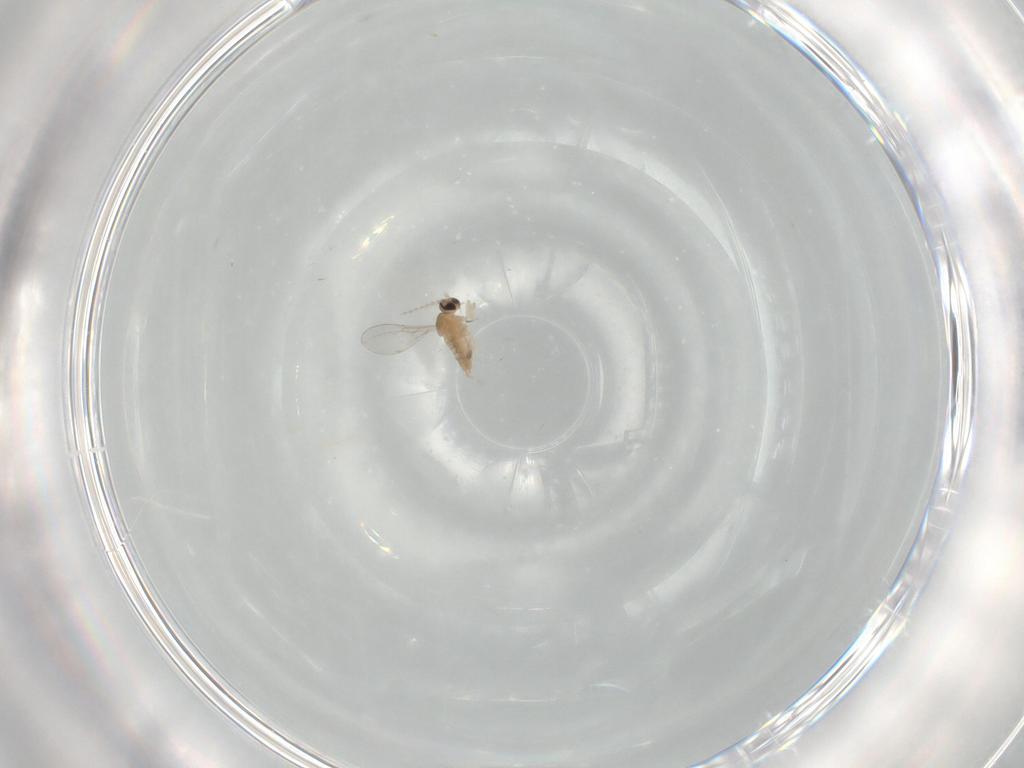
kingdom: Animalia
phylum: Arthropoda
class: Insecta
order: Diptera
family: Cecidomyiidae
